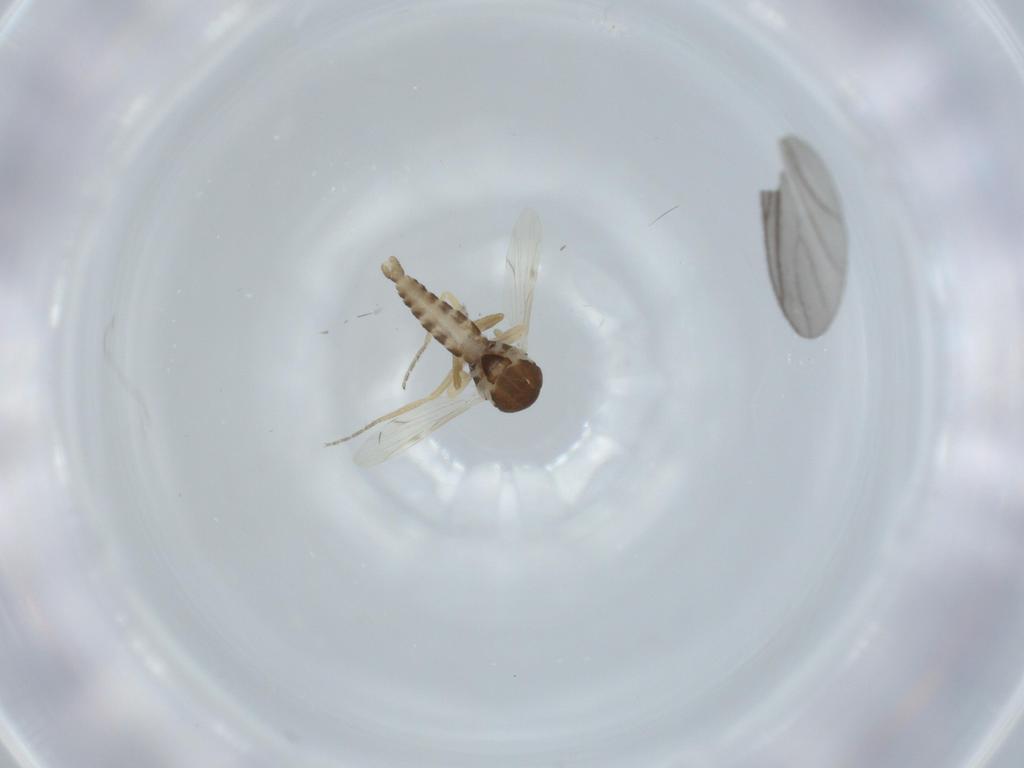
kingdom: Animalia
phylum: Arthropoda
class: Insecta
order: Diptera
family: Ceratopogonidae
